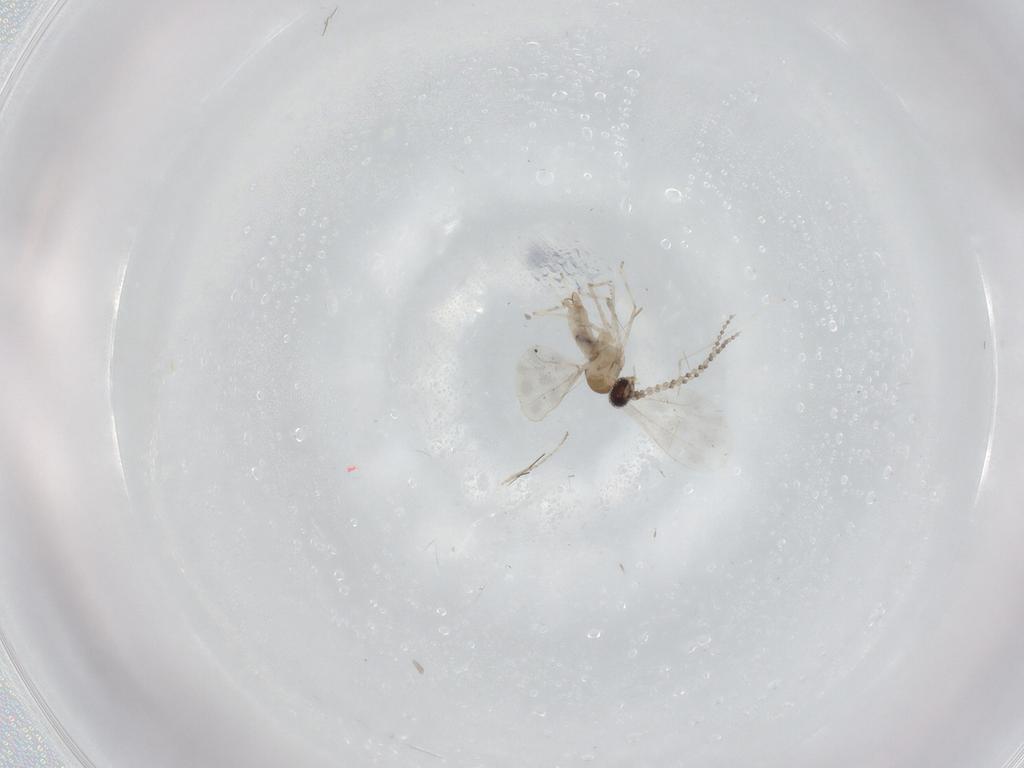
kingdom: Animalia
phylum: Arthropoda
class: Insecta
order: Diptera
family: Cecidomyiidae
